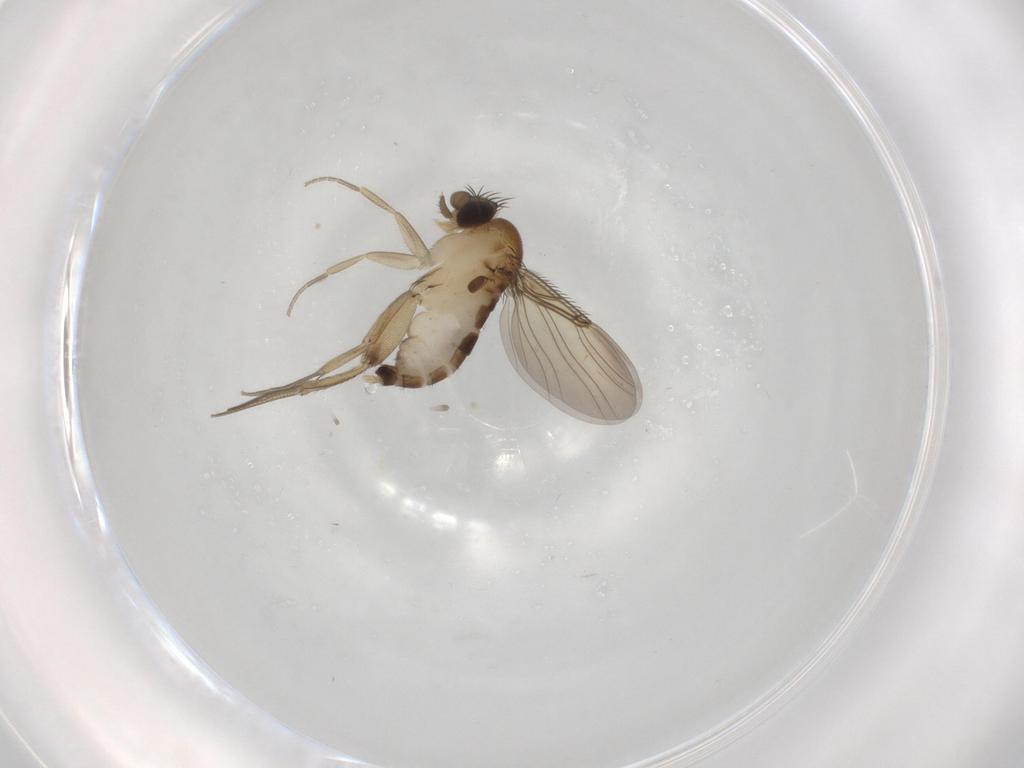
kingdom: Animalia
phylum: Arthropoda
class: Insecta
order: Diptera
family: Phoridae
